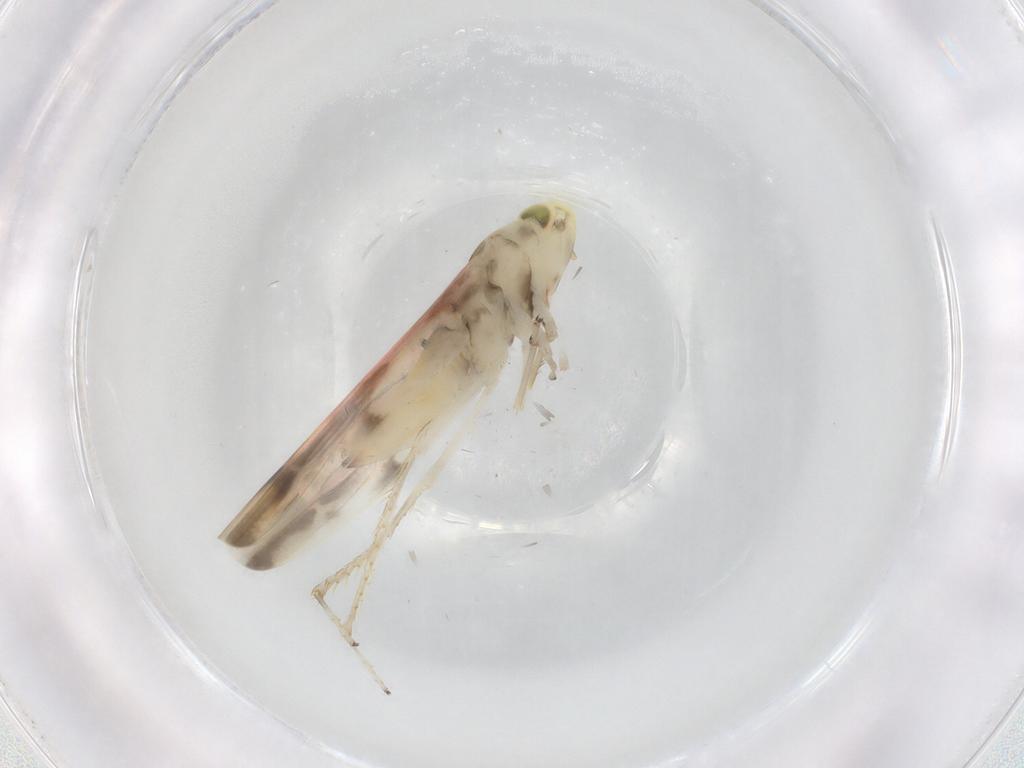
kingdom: Animalia
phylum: Arthropoda
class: Insecta
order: Hemiptera
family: Cicadellidae
